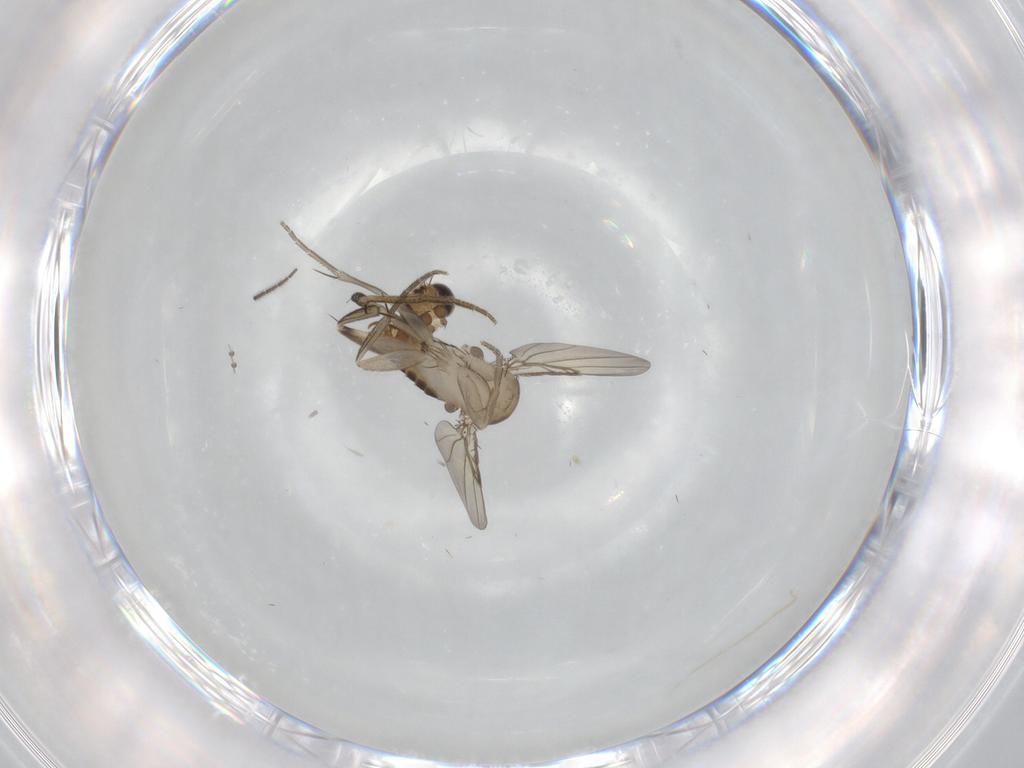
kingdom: Animalia
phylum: Arthropoda
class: Insecta
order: Diptera
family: Phoridae
